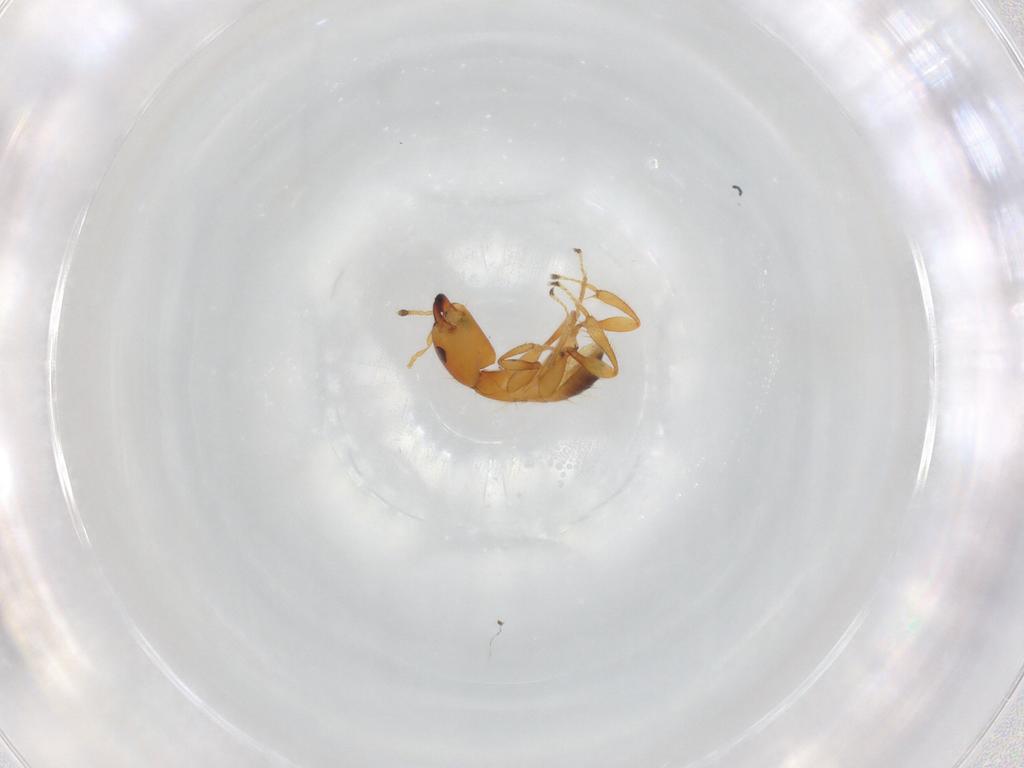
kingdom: Animalia
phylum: Arthropoda
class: Insecta
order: Hymenoptera
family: Pteromalidae
